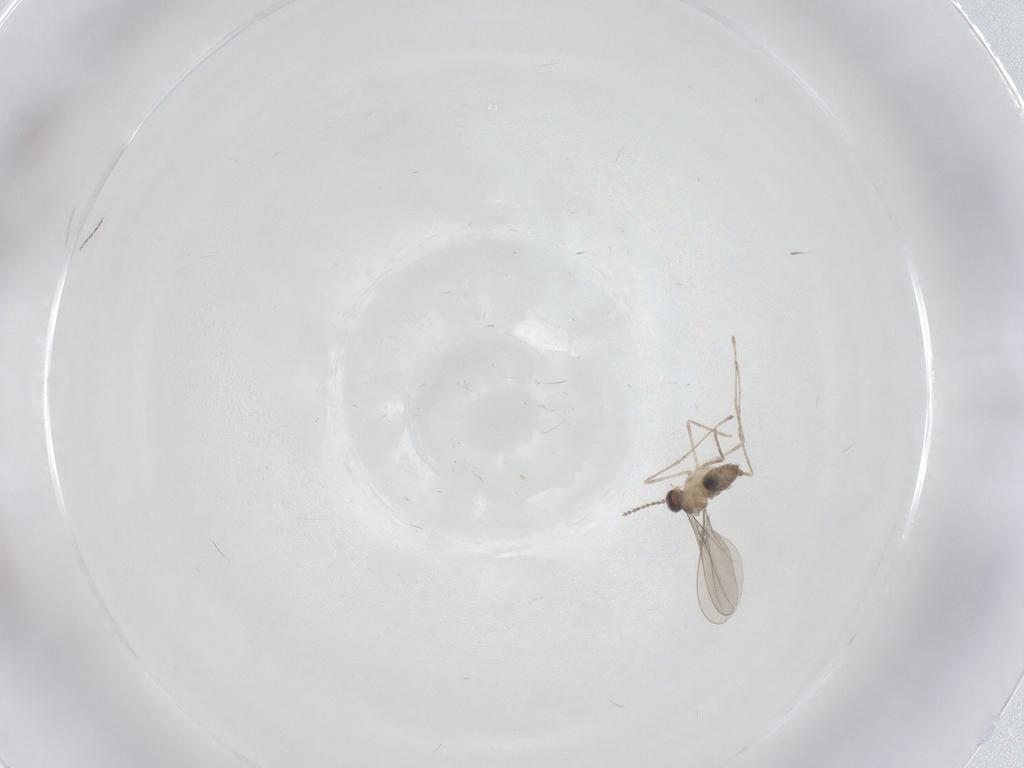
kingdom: Animalia
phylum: Arthropoda
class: Insecta
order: Diptera
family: Cecidomyiidae
